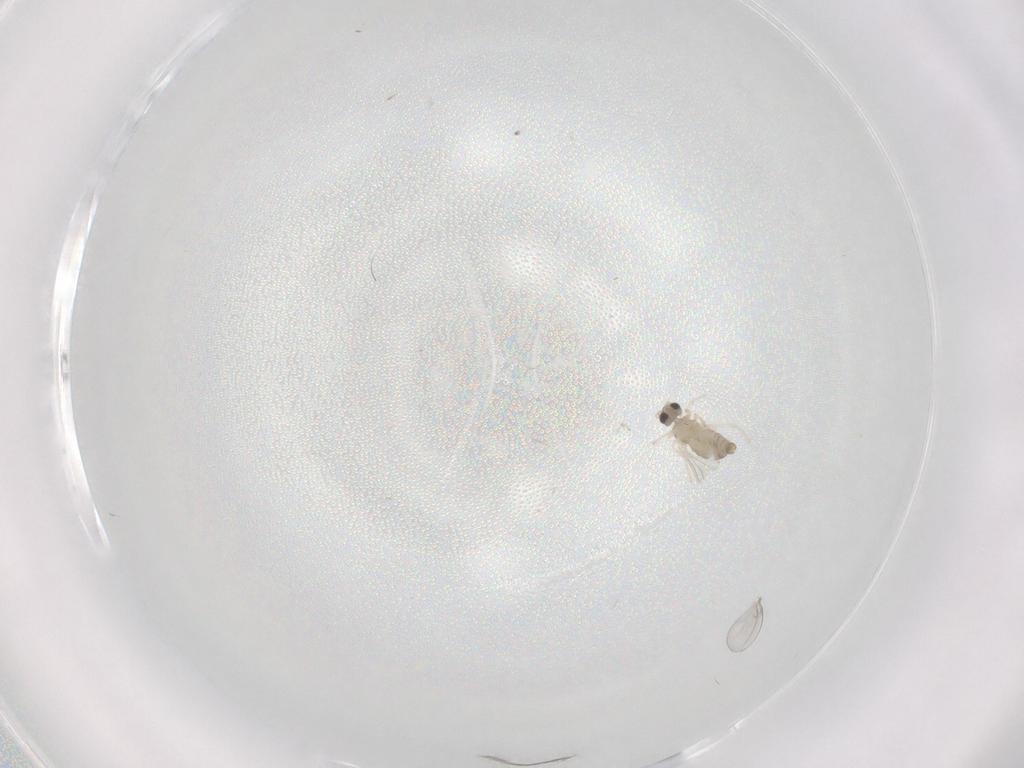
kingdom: Animalia
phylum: Arthropoda
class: Insecta
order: Diptera
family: Cecidomyiidae
